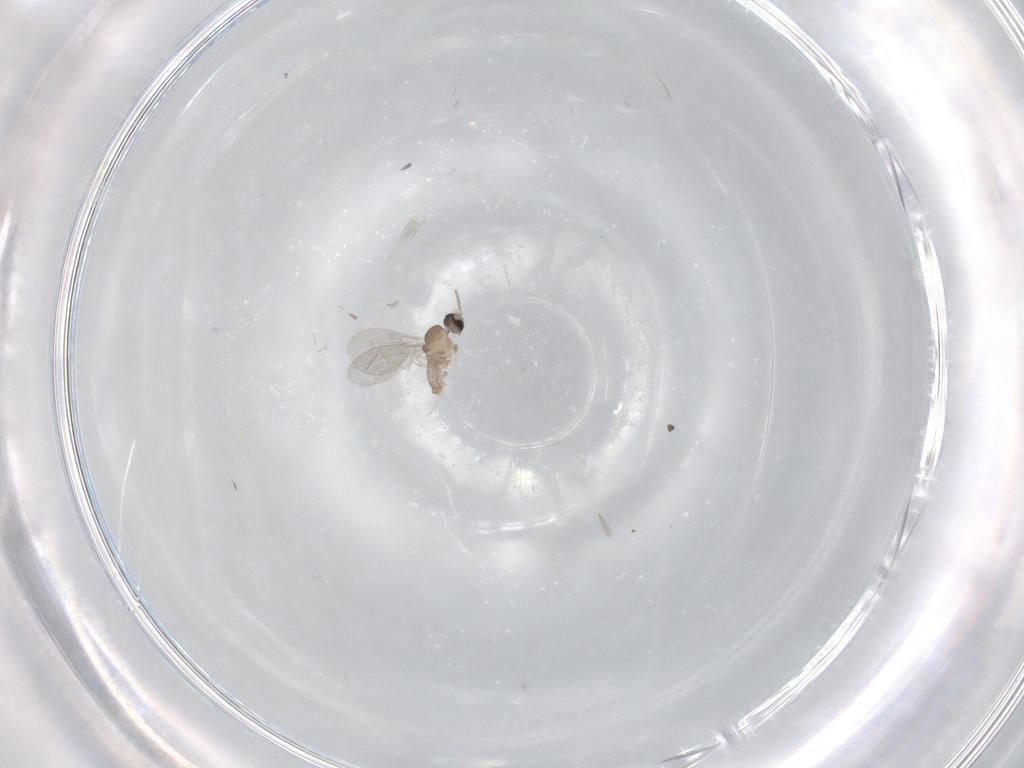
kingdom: Animalia
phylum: Arthropoda
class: Insecta
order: Diptera
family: Cecidomyiidae
